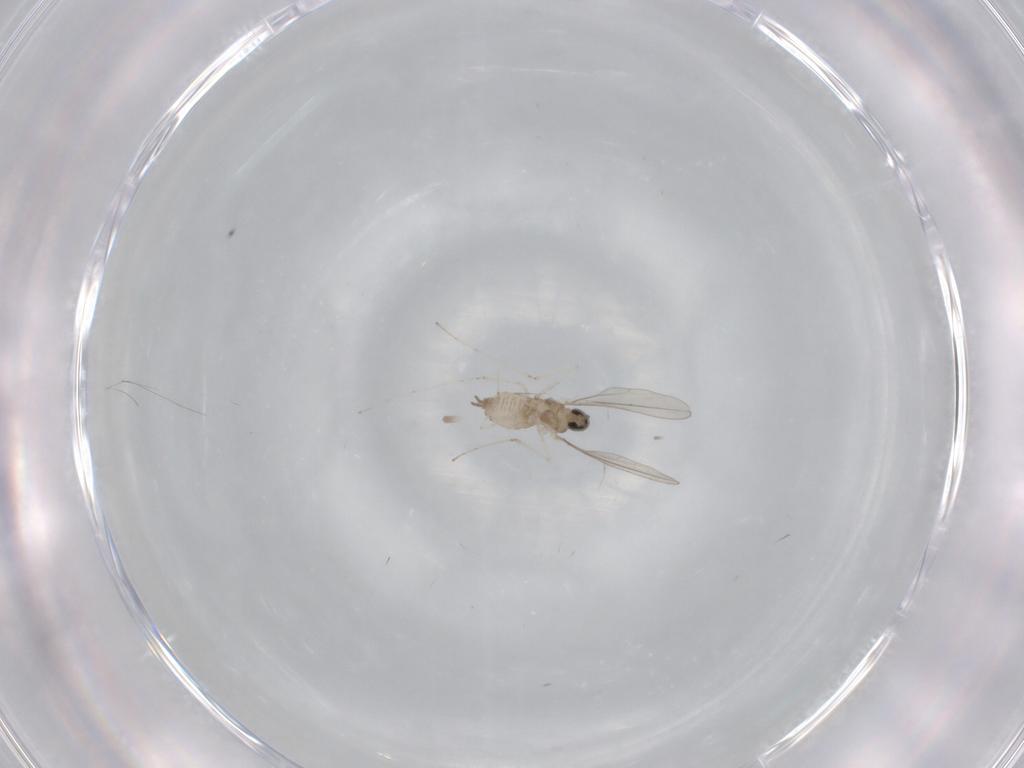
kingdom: Animalia
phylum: Arthropoda
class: Insecta
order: Diptera
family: Cecidomyiidae
